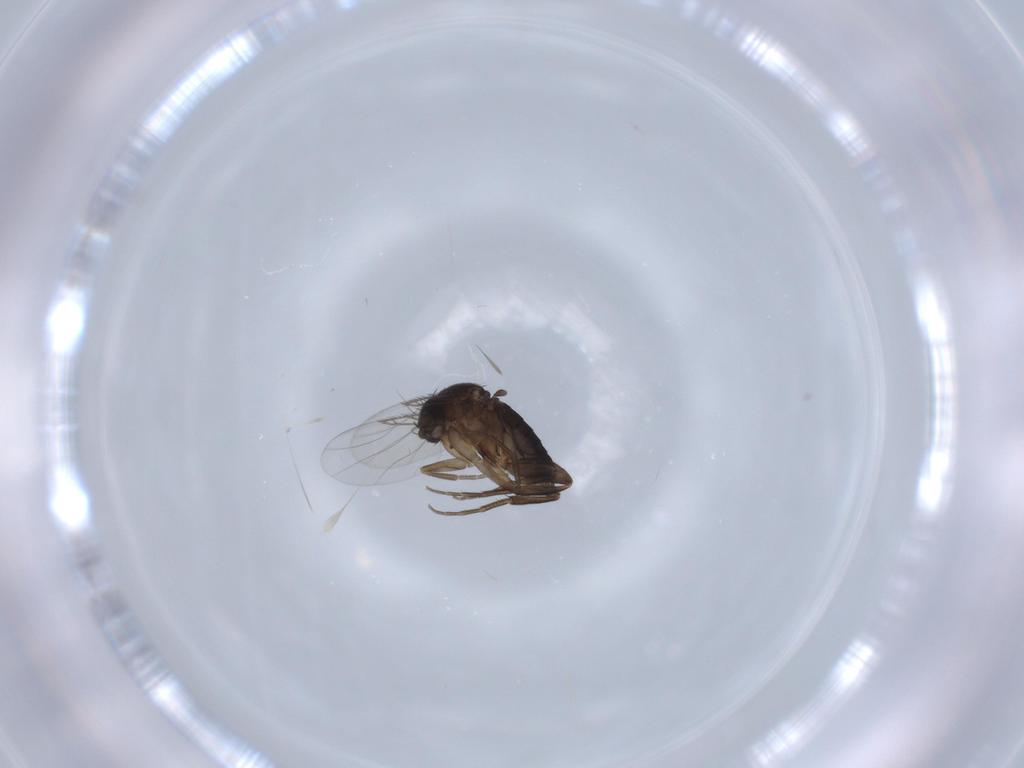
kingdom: Animalia
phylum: Arthropoda
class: Insecta
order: Diptera
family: Phoridae
